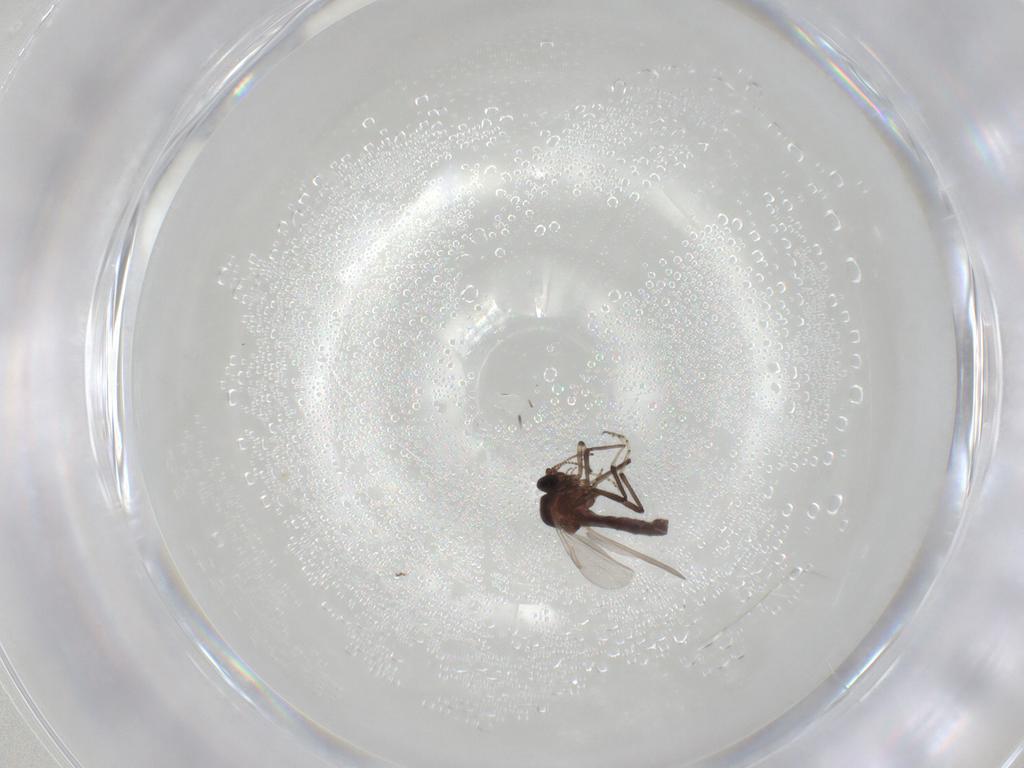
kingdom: Animalia
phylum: Arthropoda
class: Insecta
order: Diptera
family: Ceratopogonidae
